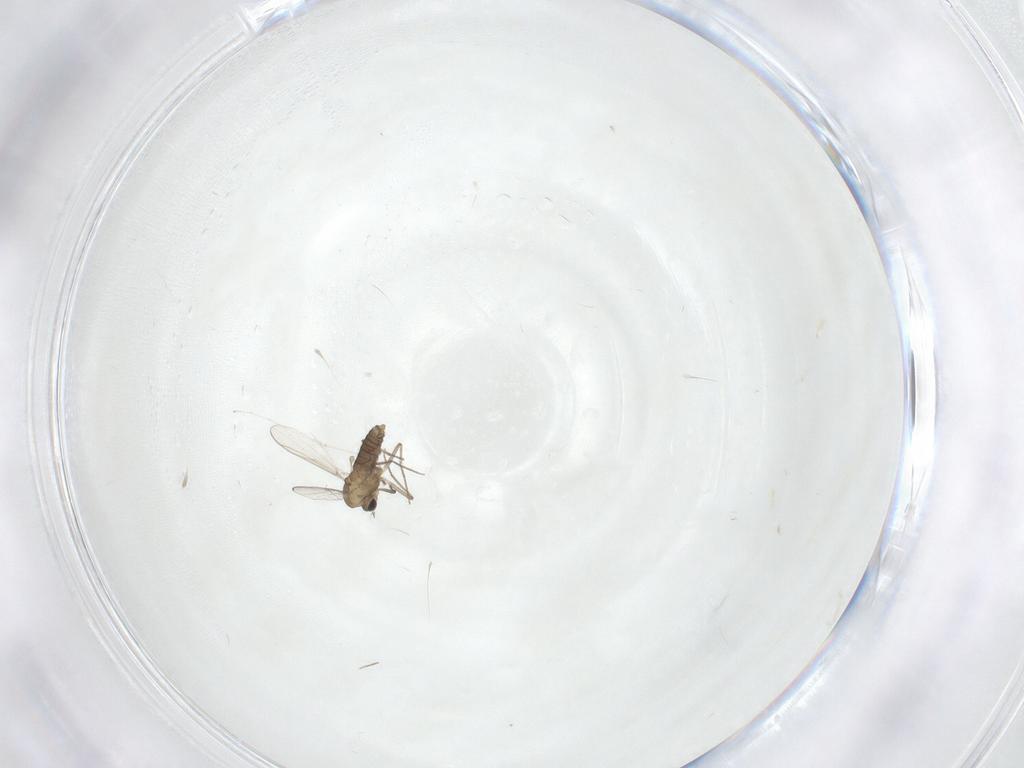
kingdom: Animalia
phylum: Arthropoda
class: Insecta
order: Diptera
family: Chironomidae
